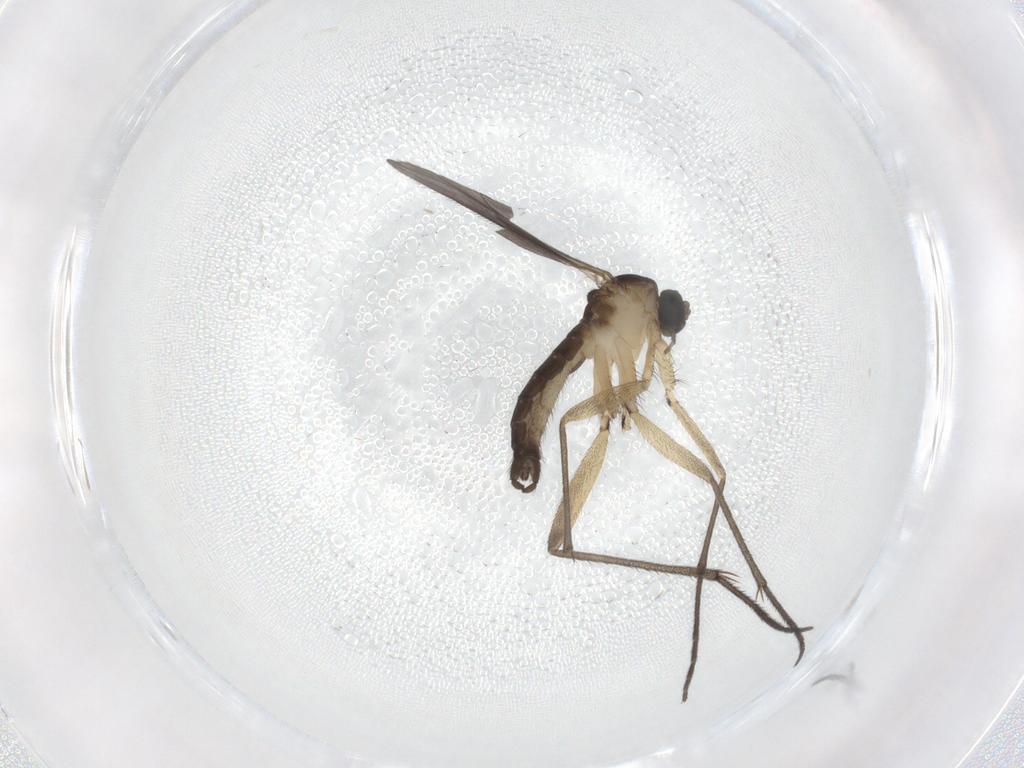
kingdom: Animalia
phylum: Arthropoda
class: Insecta
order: Diptera
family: Sciaridae
